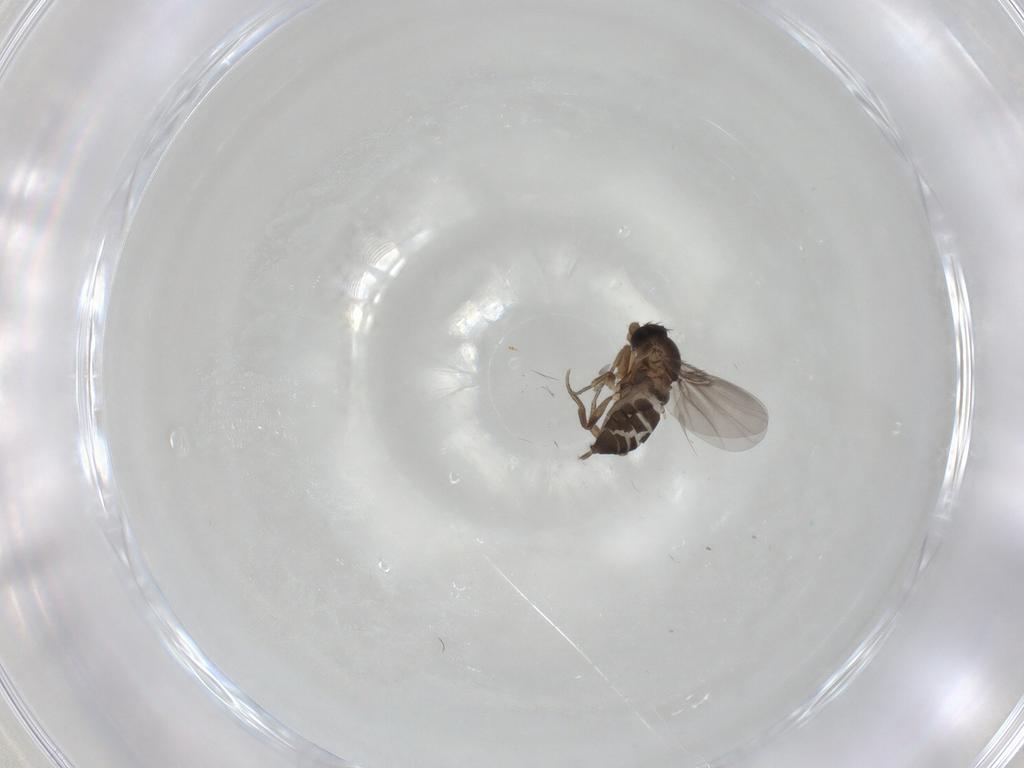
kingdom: Animalia
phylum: Arthropoda
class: Insecta
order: Diptera
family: Phoridae
